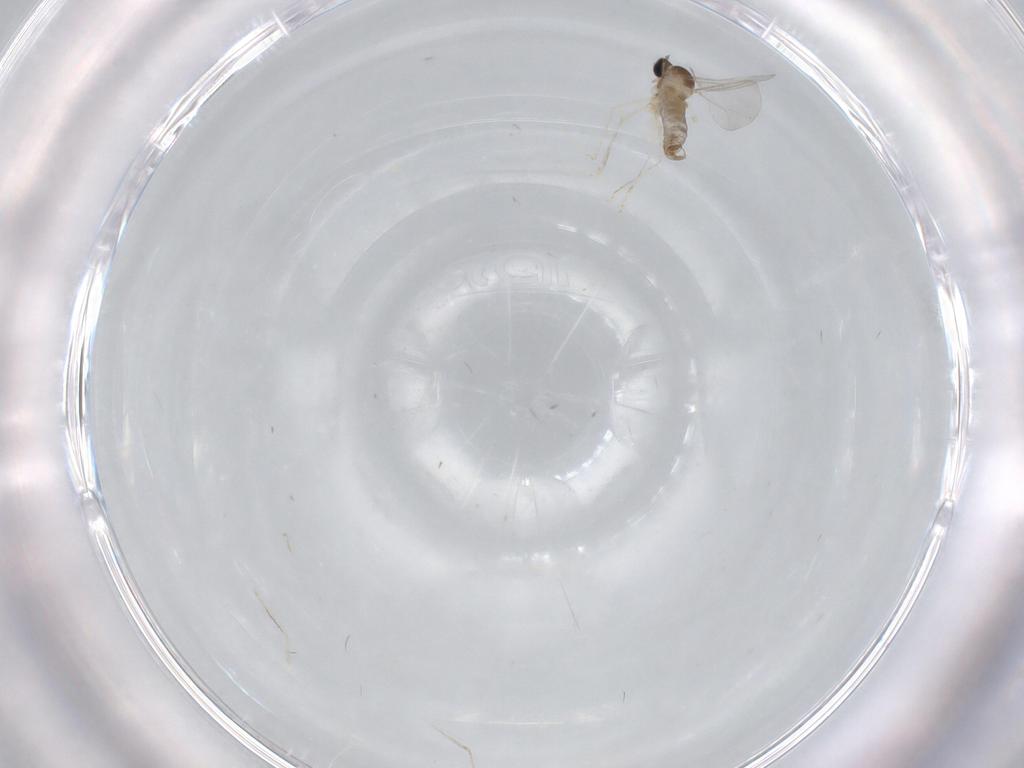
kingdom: Animalia
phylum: Arthropoda
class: Insecta
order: Diptera
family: Cecidomyiidae
